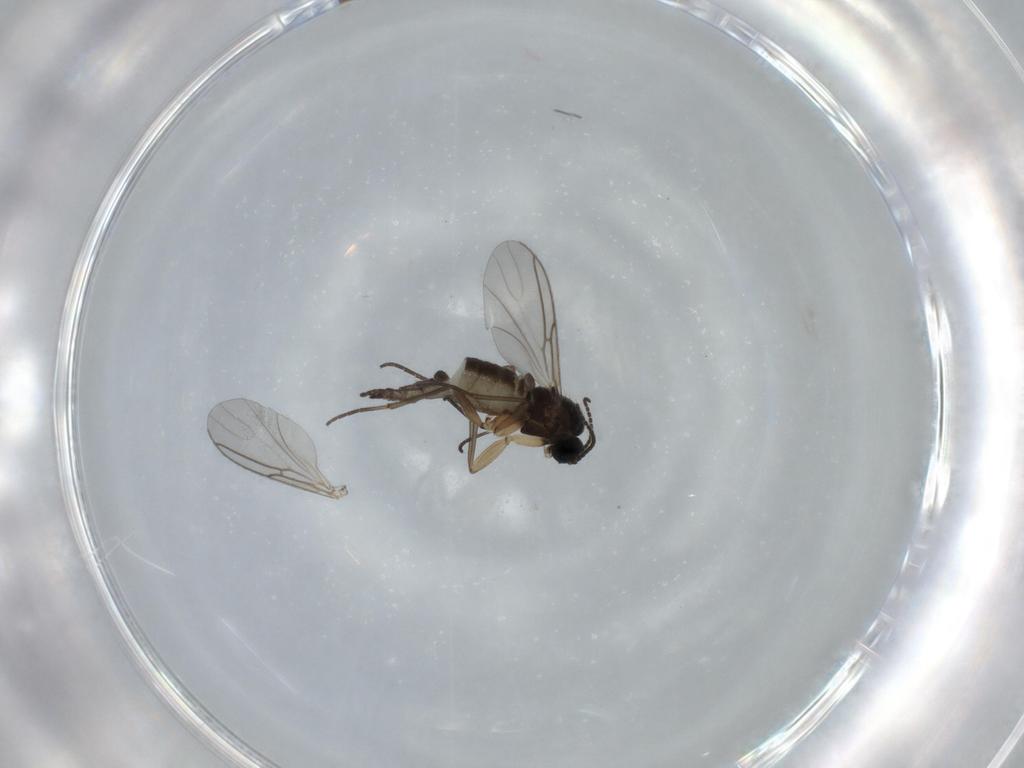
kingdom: Animalia
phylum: Arthropoda
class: Insecta
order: Diptera
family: Sciaridae
